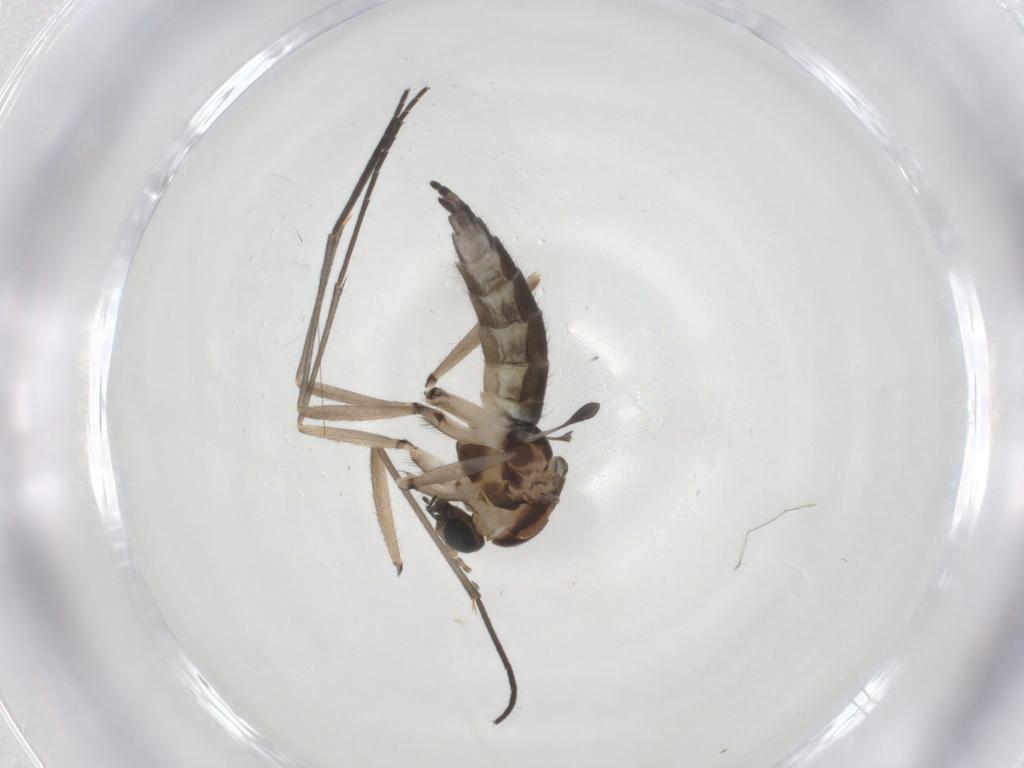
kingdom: Animalia
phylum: Arthropoda
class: Insecta
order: Diptera
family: Sciaridae
